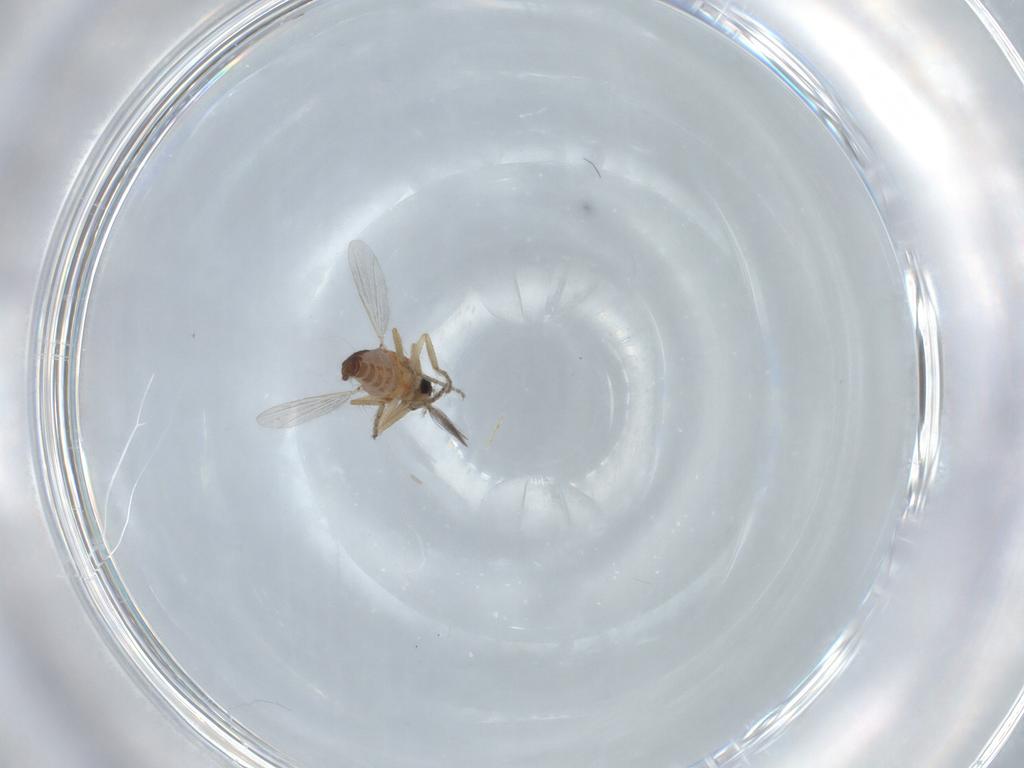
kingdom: Animalia
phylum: Arthropoda
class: Insecta
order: Diptera
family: Ceratopogonidae
